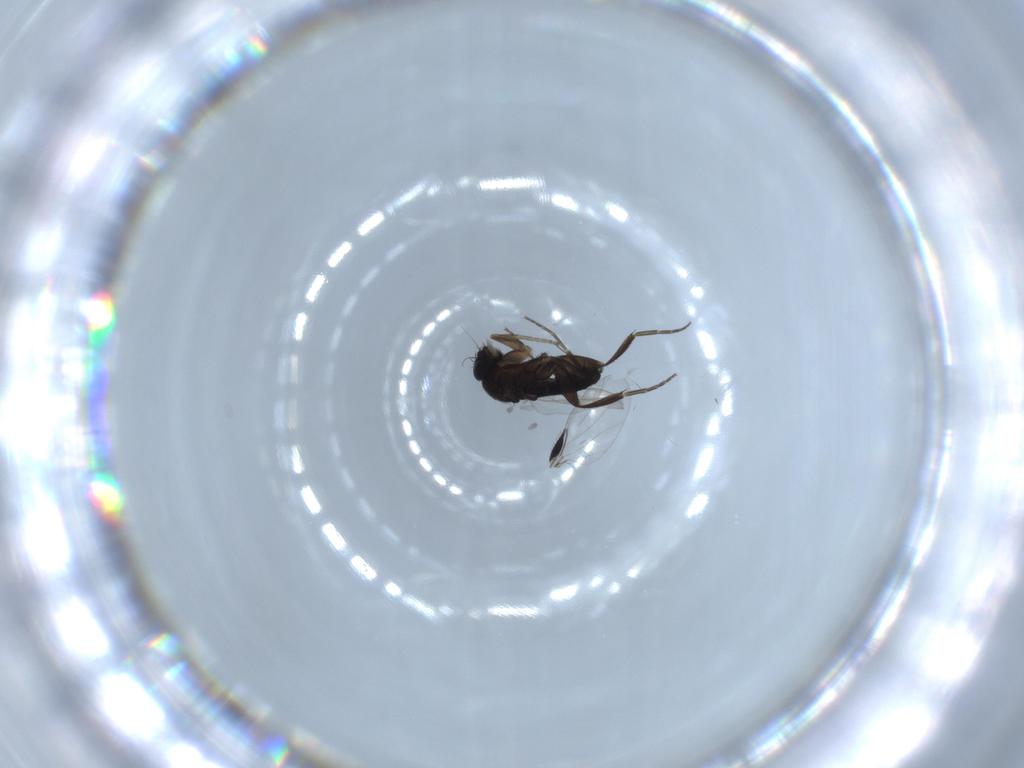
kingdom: Animalia
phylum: Arthropoda
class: Insecta
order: Diptera
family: Phoridae
